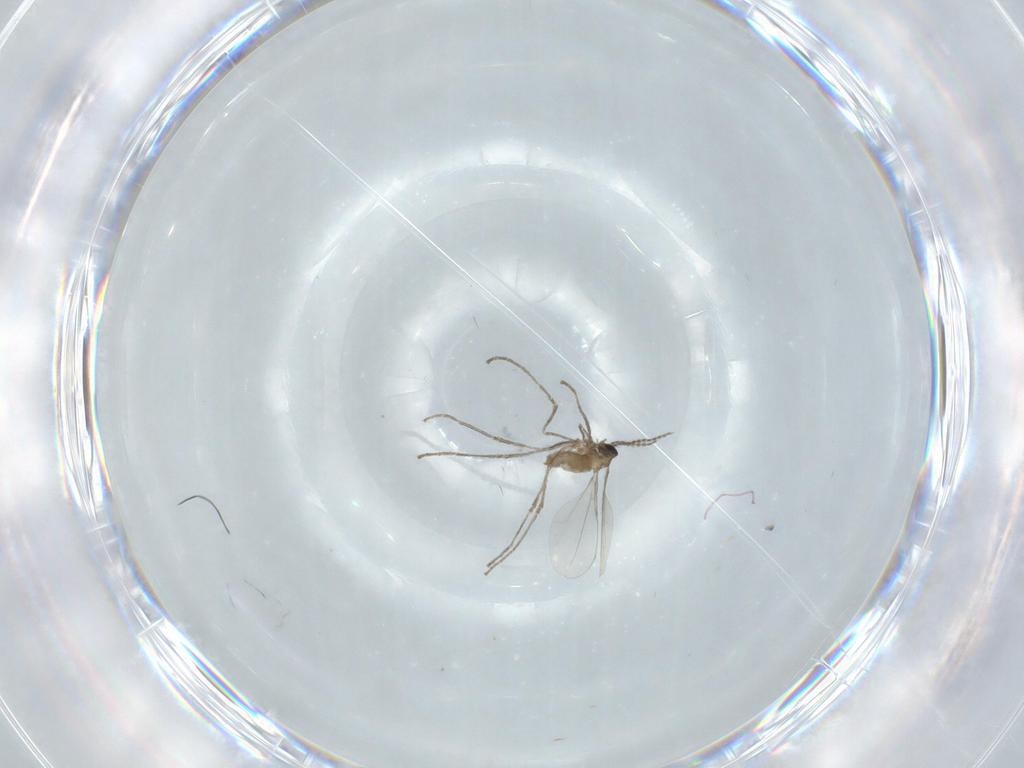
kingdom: Animalia
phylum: Arthropoda
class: Insecta
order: Diptera
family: Cecidomyiidae
